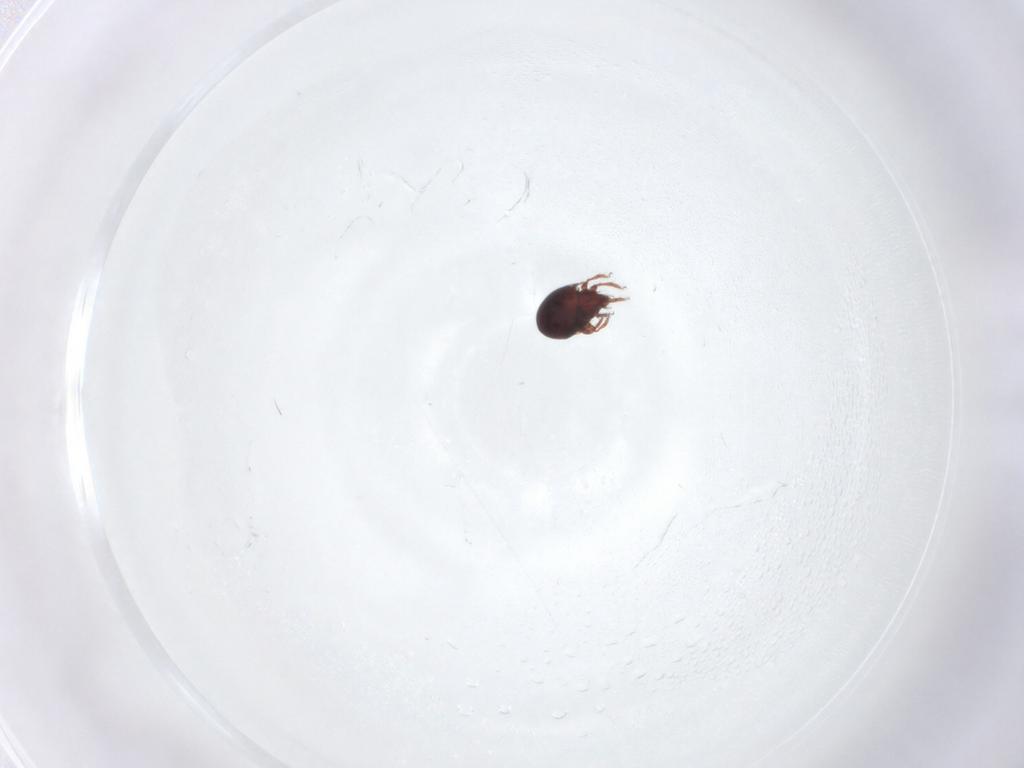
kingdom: Animalia
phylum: Arthropoda
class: Arachnida
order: Sarcoptiformes
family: Ceratozetidae
